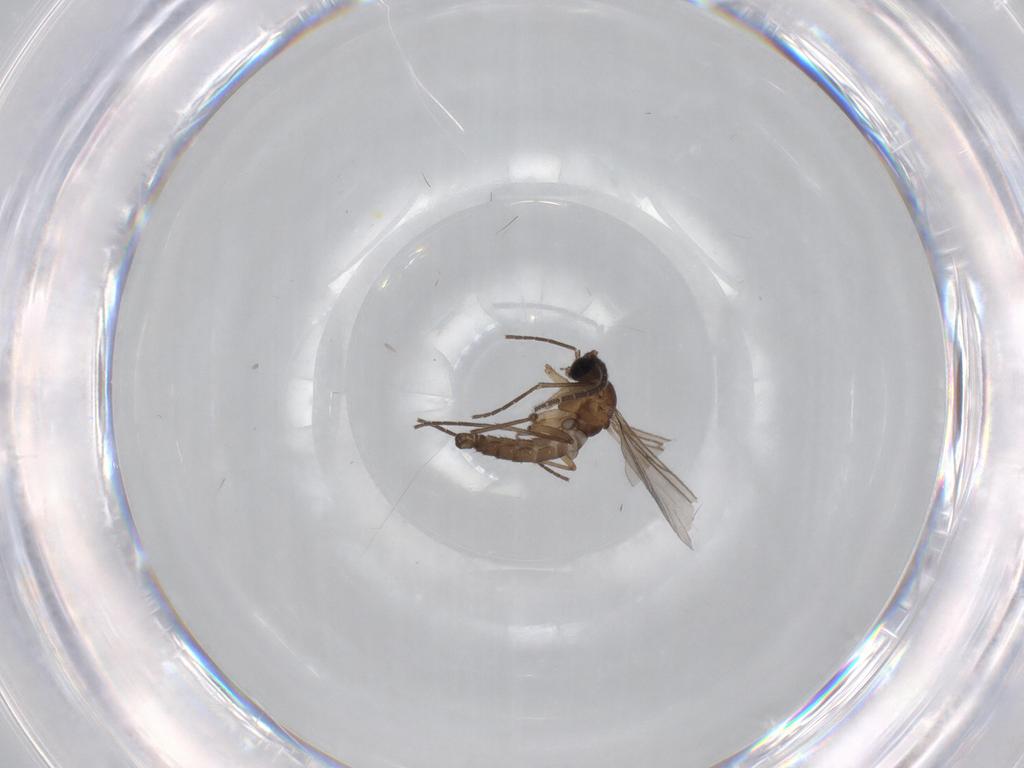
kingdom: Animalia
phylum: Arthropoda
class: Insecta
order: Diptera
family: Sciaridae
